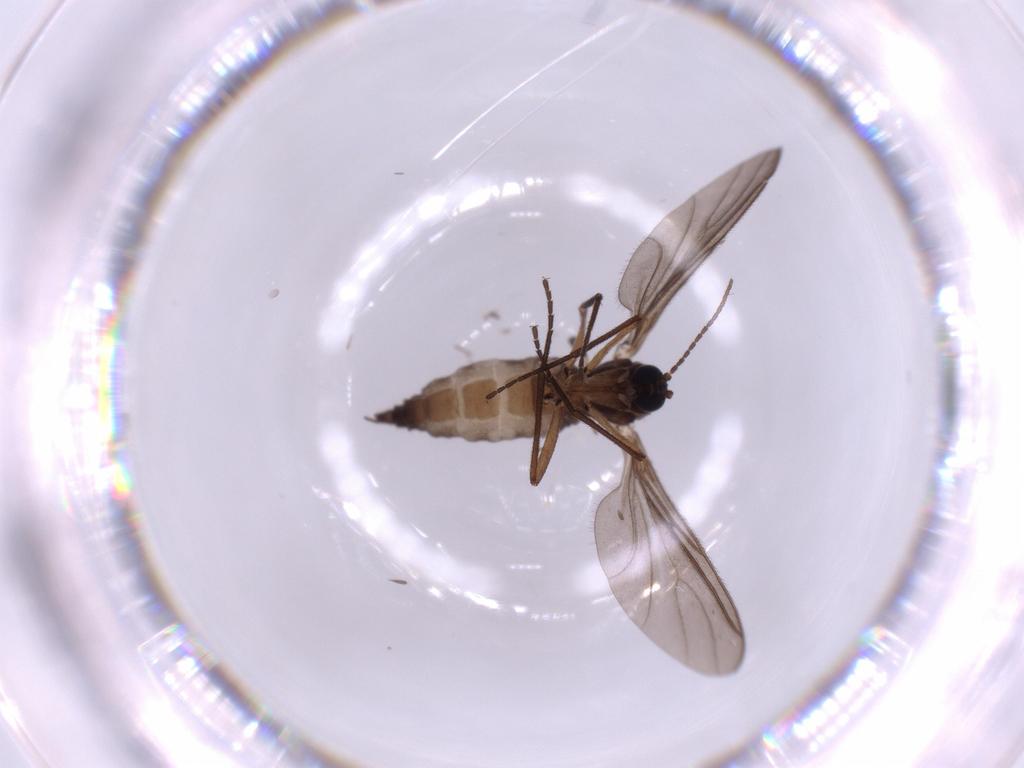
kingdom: Animalia
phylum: Arthropoda
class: Insecta
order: Diptera
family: Sciaridae
